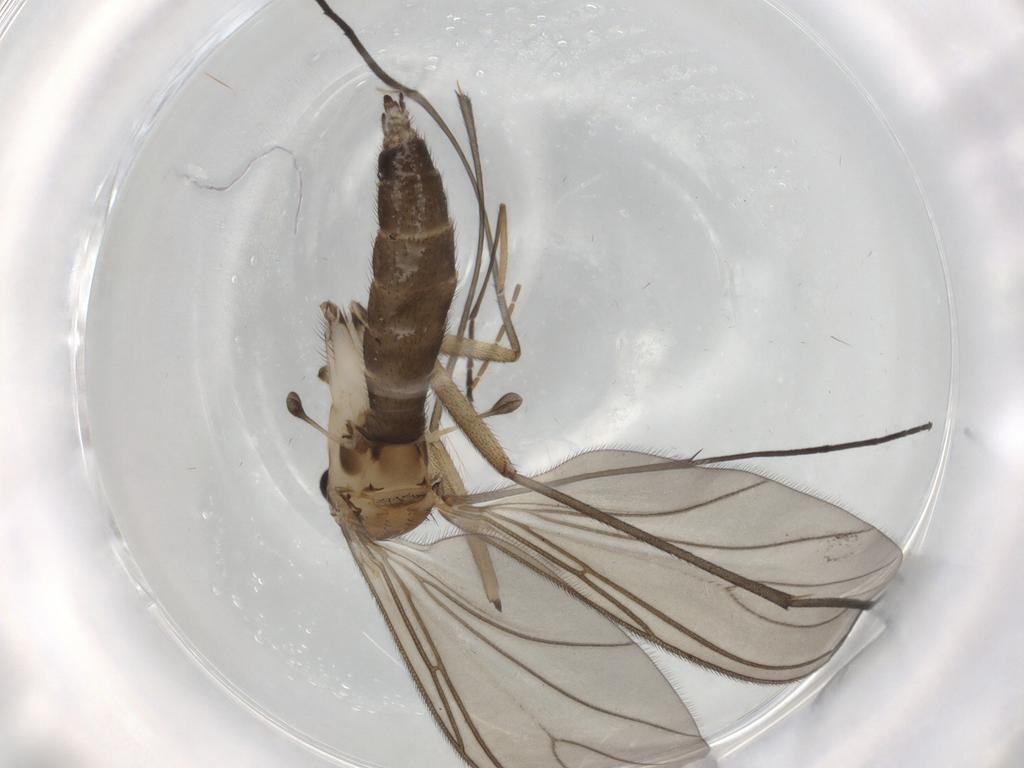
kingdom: Animalia
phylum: Arthropoda
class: Insecta
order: Diptera
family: Sciaridae
